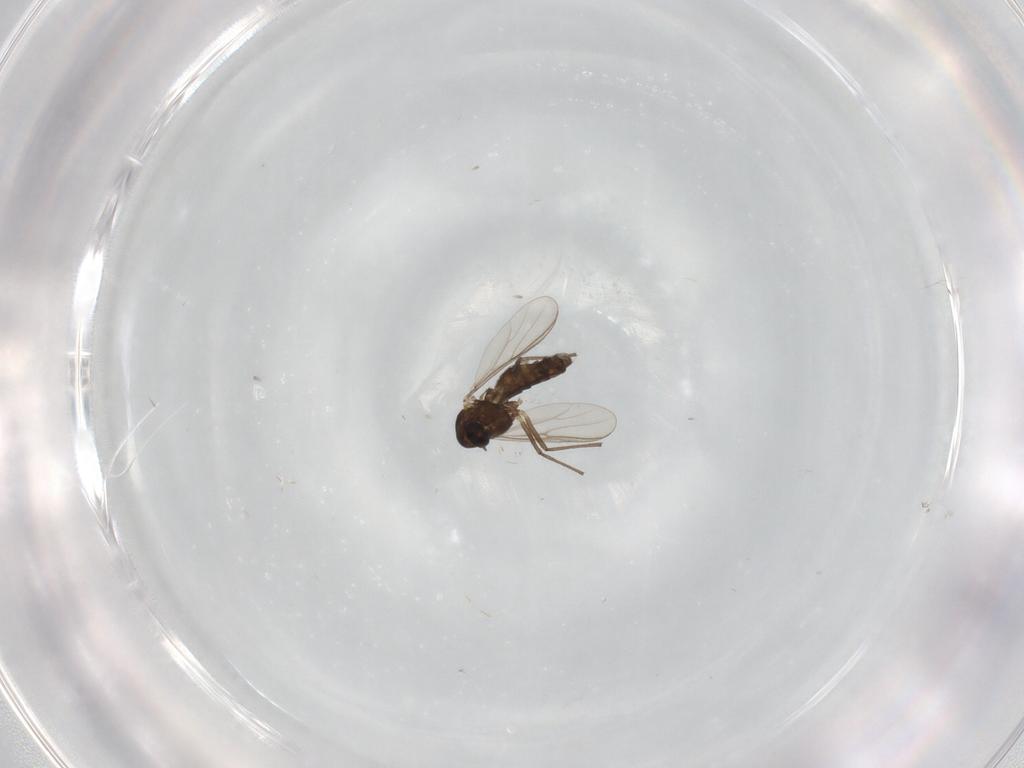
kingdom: Animalia
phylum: Arthropoda
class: Insecta
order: Diptera
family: Chironomidae
